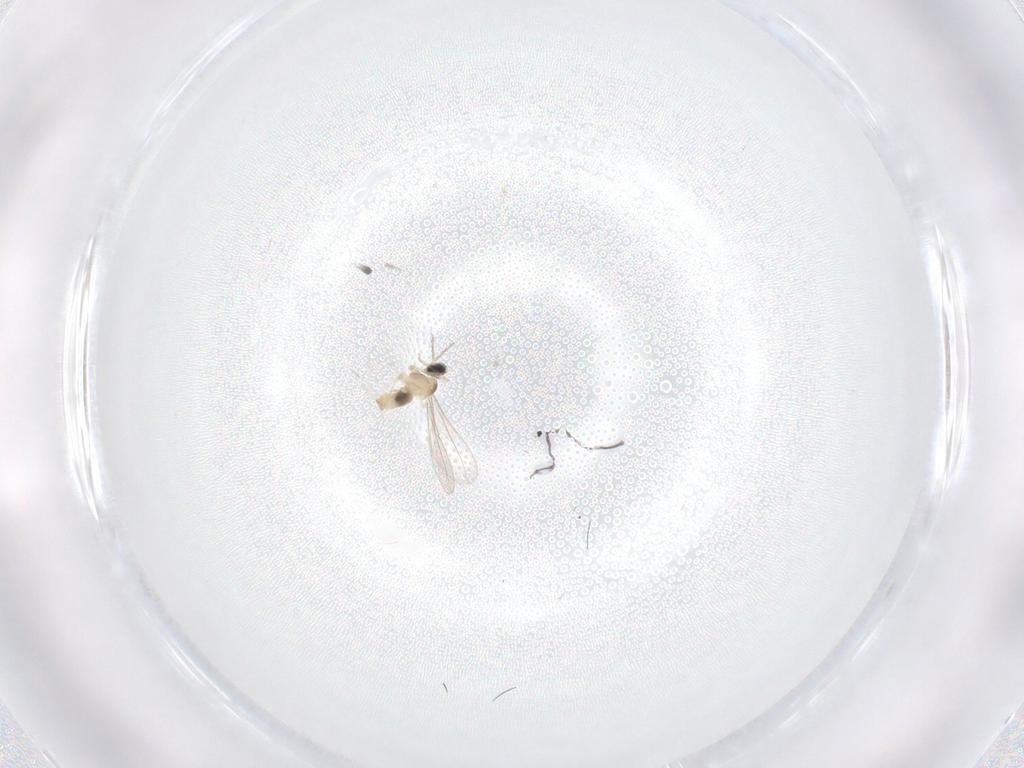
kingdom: Animalia
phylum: Arthropoda
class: Insecta
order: Diptera
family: Cecidomyiidae
